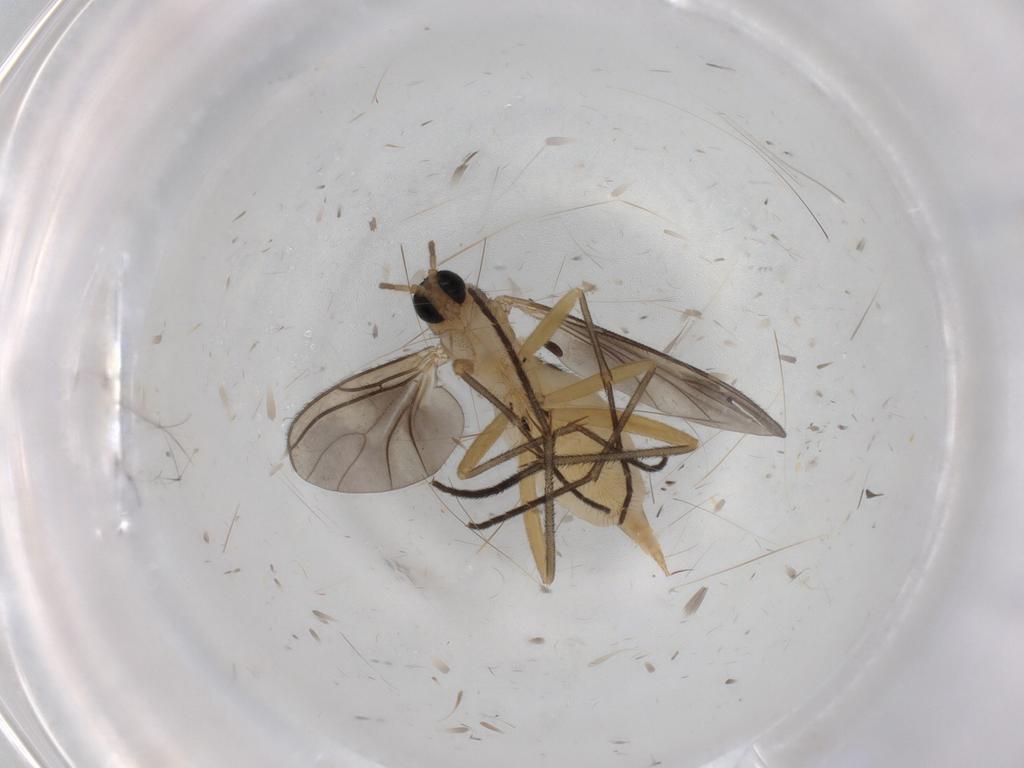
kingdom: Animalia
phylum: Arthropoda
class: Insecta
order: Diptera
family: Sciaridae
